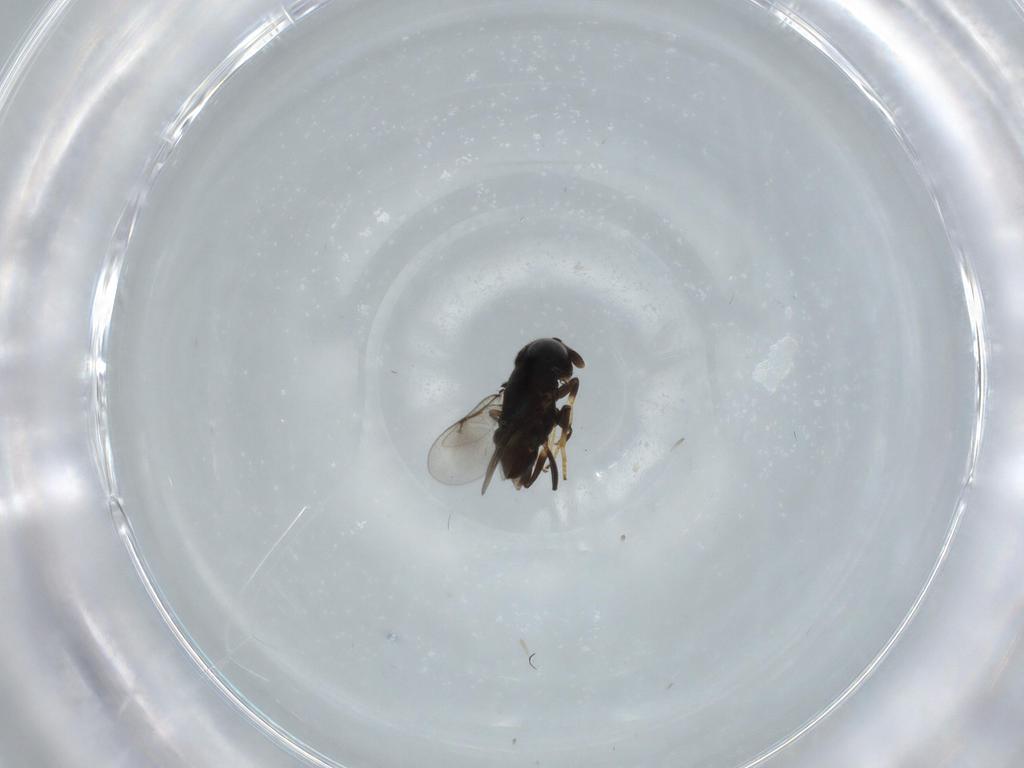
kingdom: Animalia
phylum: Arthropoda
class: Insecta
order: Hymenoptera
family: Encyrtidae
